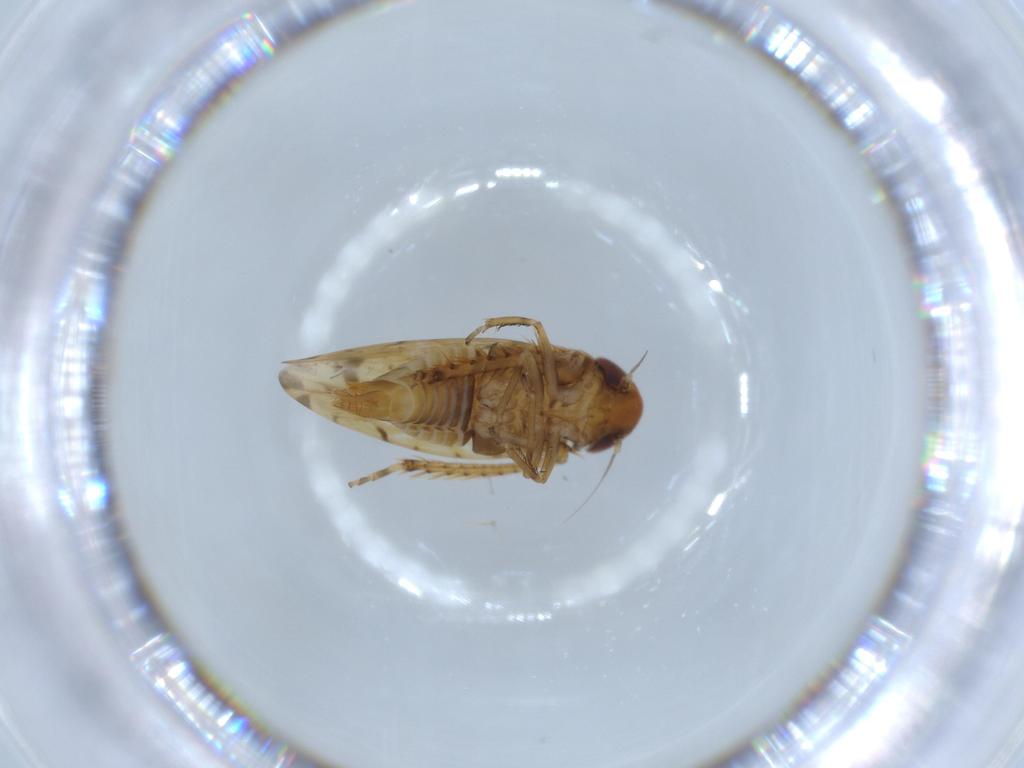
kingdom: Animalia
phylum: Arthropoda
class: Insecta
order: Hemiptera
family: Cicadellidae
